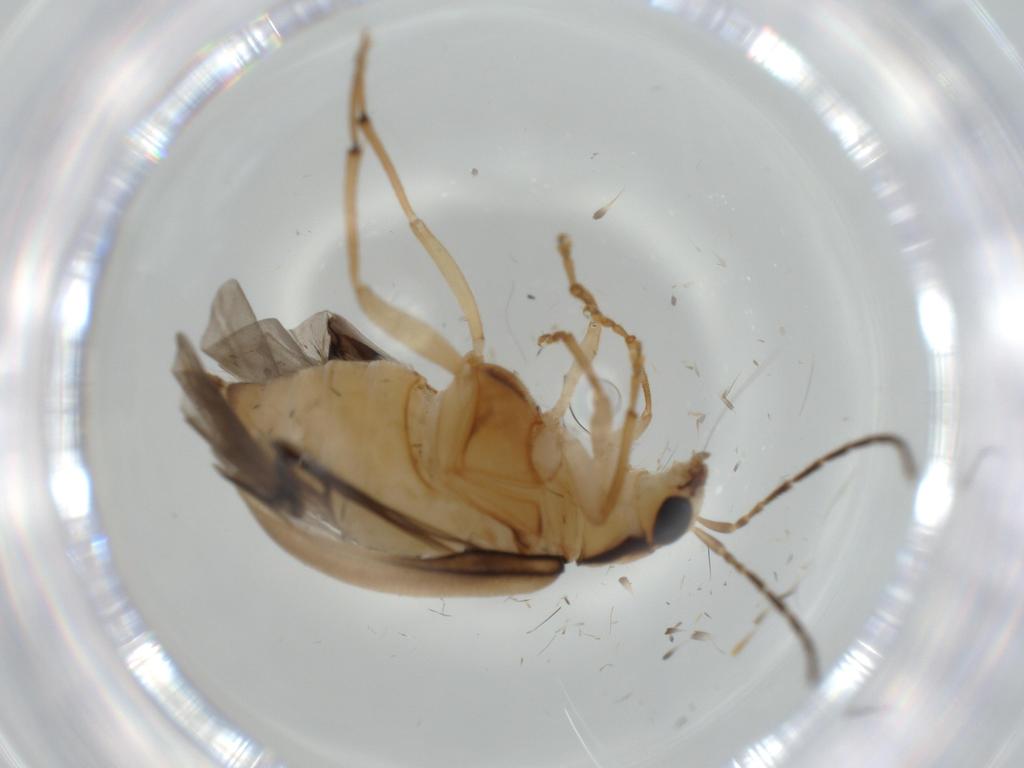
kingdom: Animalia
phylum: Arthropoda
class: Insecta
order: Coleoptera
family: Chrysomelidae
